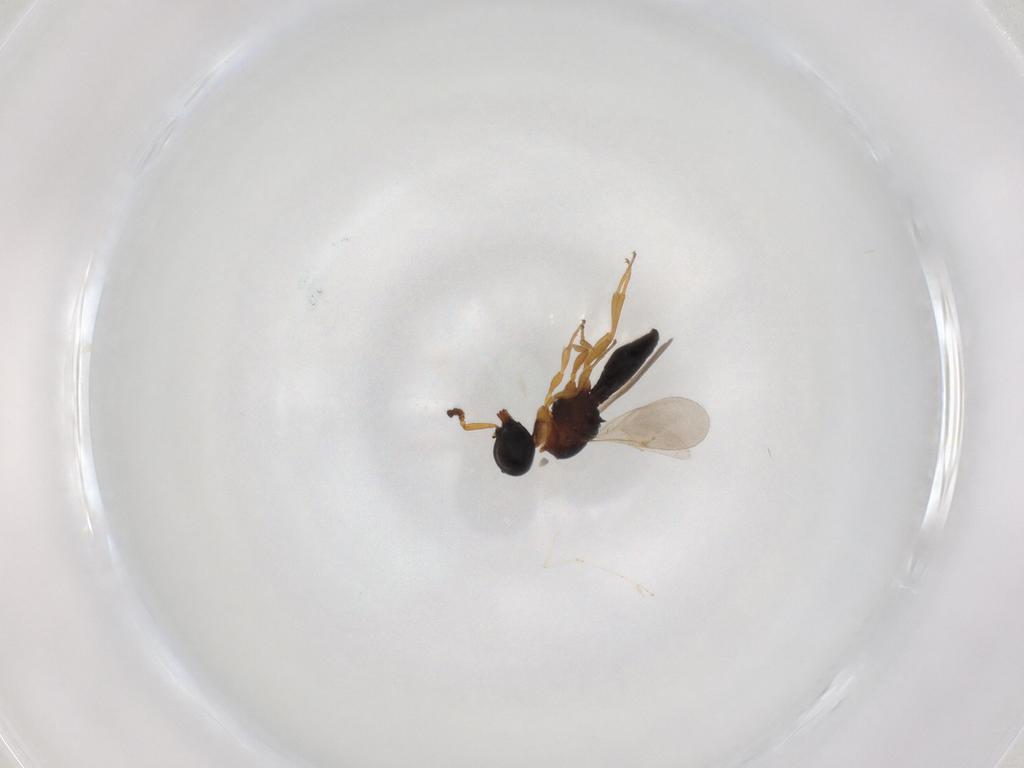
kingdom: Animalia
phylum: Arthropoda
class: Insecta
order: Hymenoptera
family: Scelionidae
